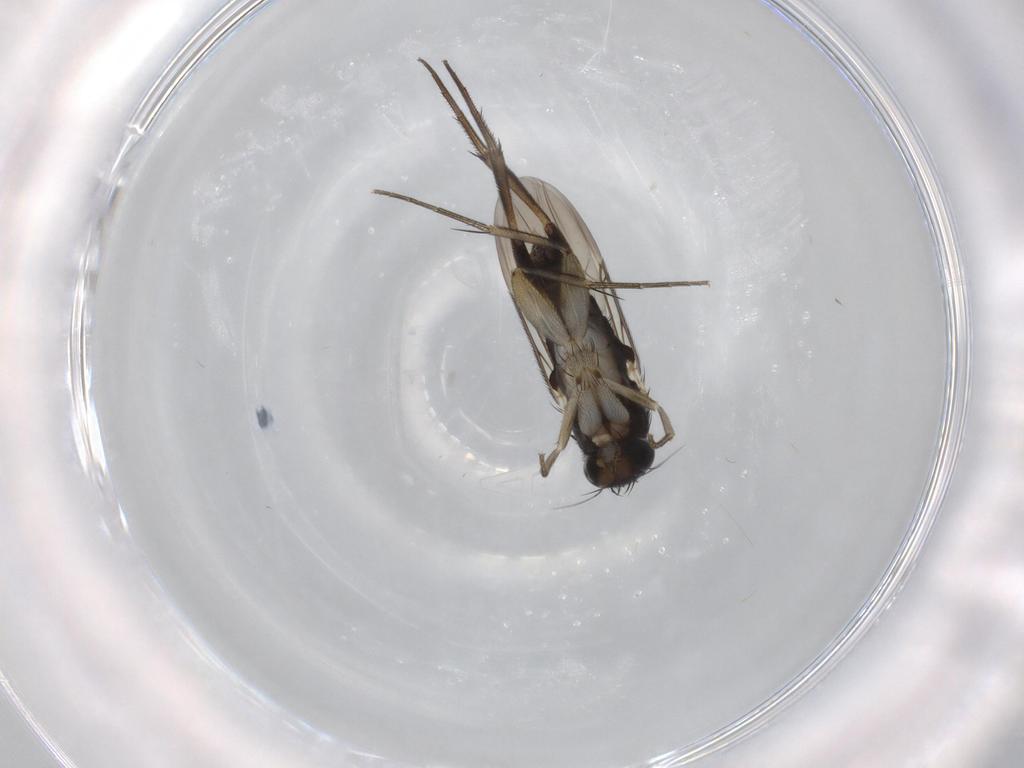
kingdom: Animalia
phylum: Arthropoda
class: Insecta
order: Diptera
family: Phoridae
